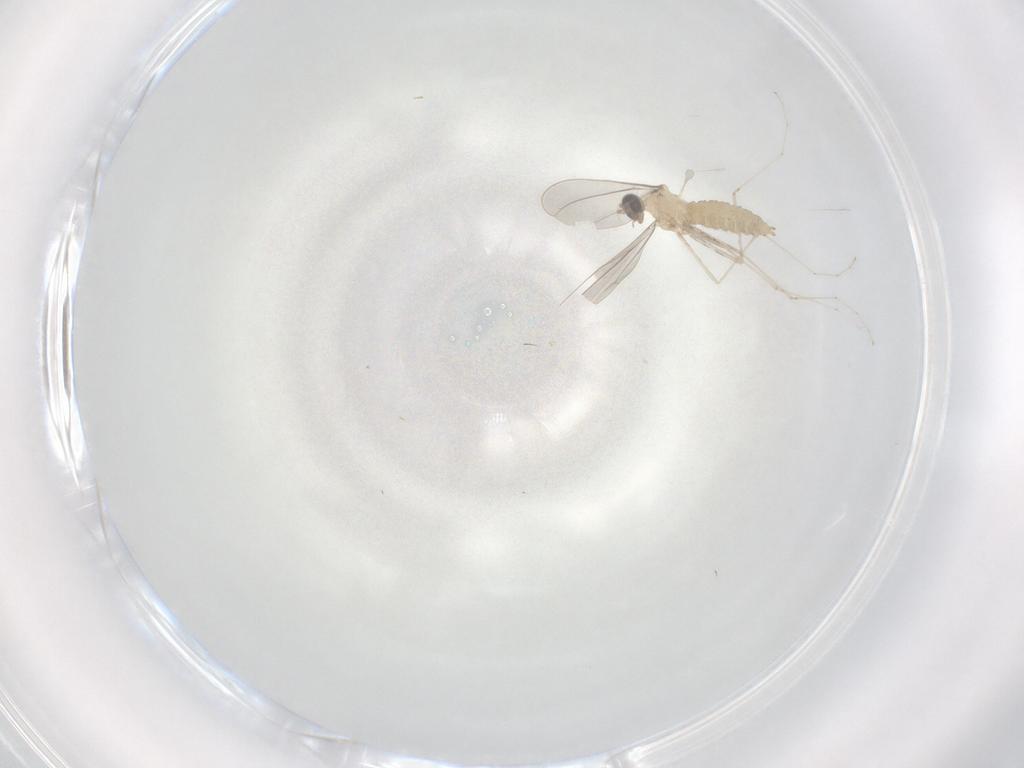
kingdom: Animalia
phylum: Arthropoda
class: Insecta
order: Diptera
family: Cecidomyiidae
